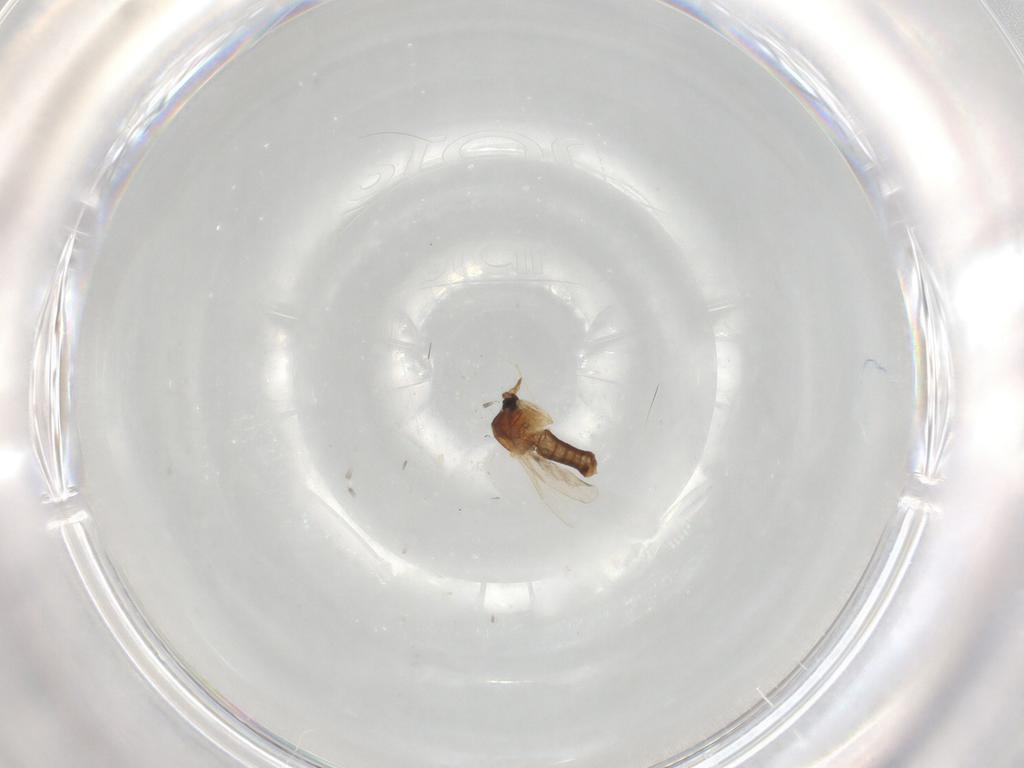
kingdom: Animalia
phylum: Arthropoda
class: Insecta
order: Diptera
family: Ceratopogonidae
